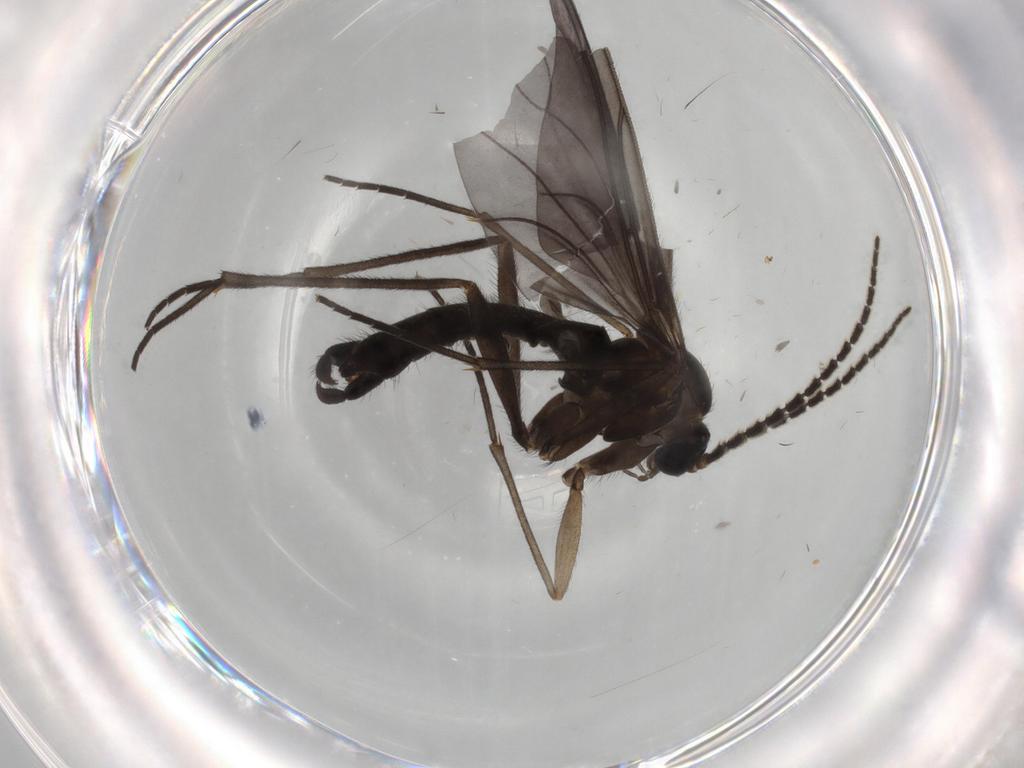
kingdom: Animalia
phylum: Arthropoda
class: Insecta
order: Diptera
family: Sciaridae
